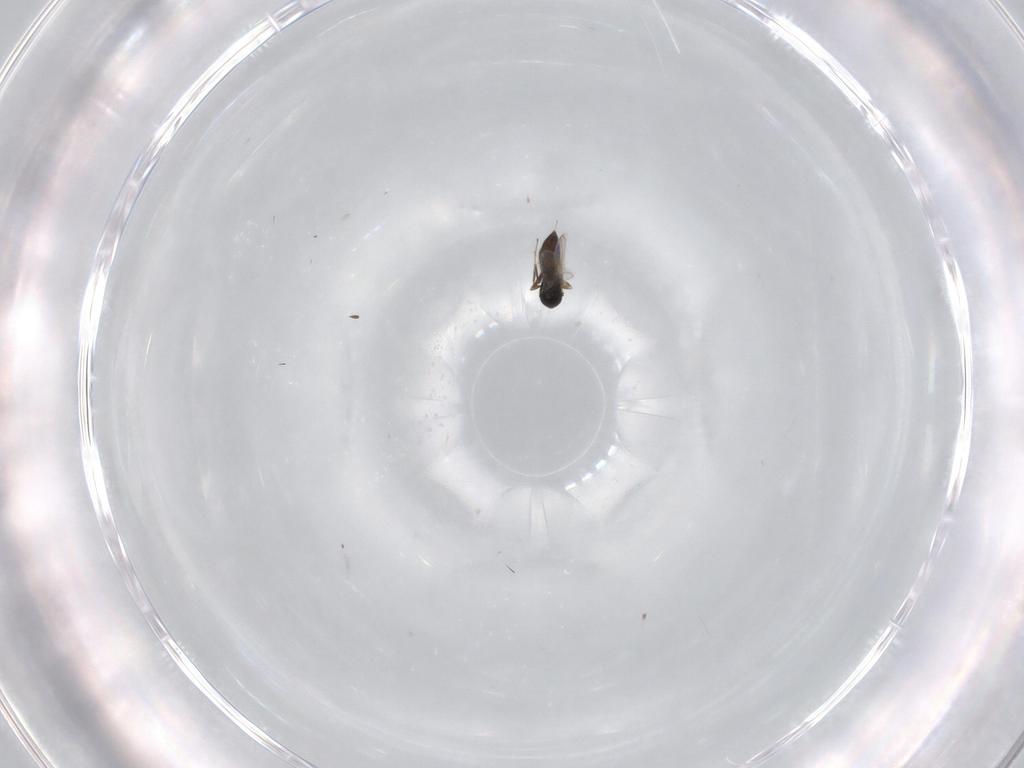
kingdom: Animalia
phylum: Arthropoda
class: Insecta
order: Hymenoptera
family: Scelionidae
